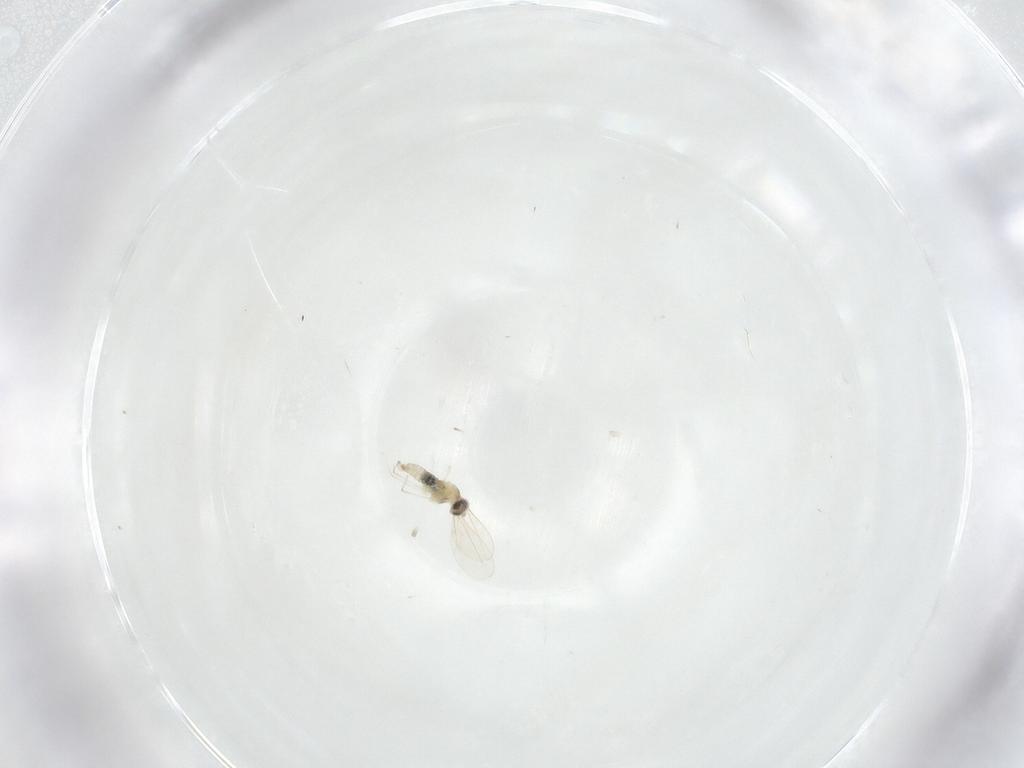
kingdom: Animalia
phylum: Arthropoda
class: Insecta
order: Diptera
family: Cecidomyiidae
